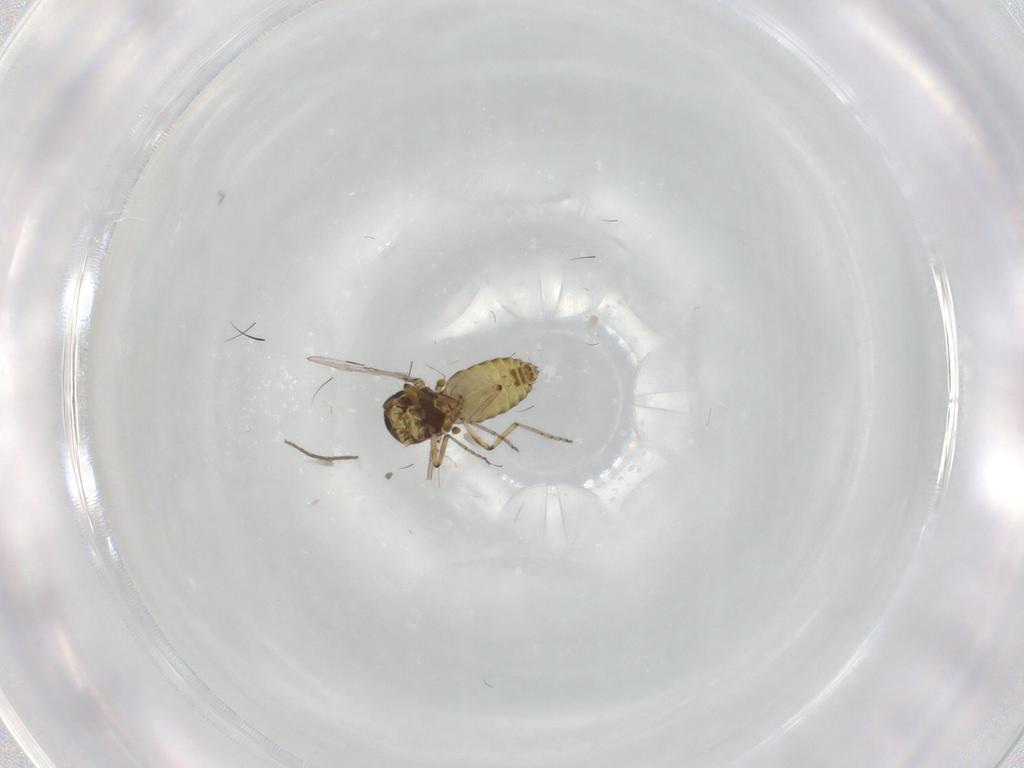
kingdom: Animalia
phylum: Arthropoda
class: Insecta
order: Diptera
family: Ceratopogonidae
